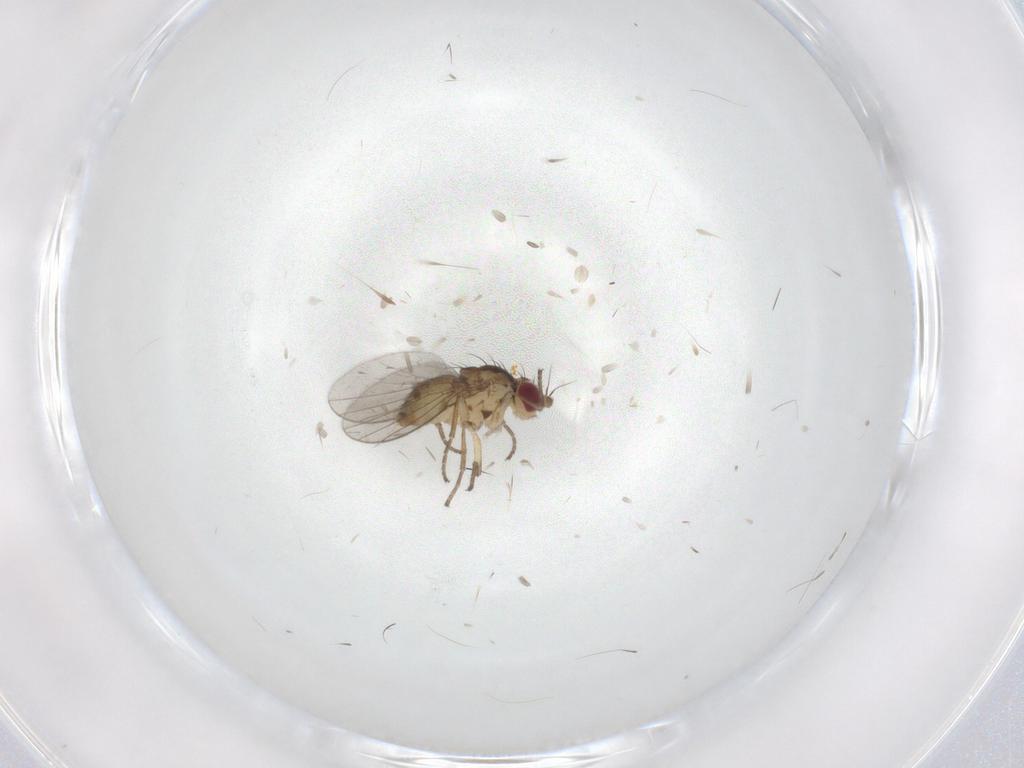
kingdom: Animalia
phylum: Arthropoda
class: Insecta
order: Diptera
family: Agromyzidae
